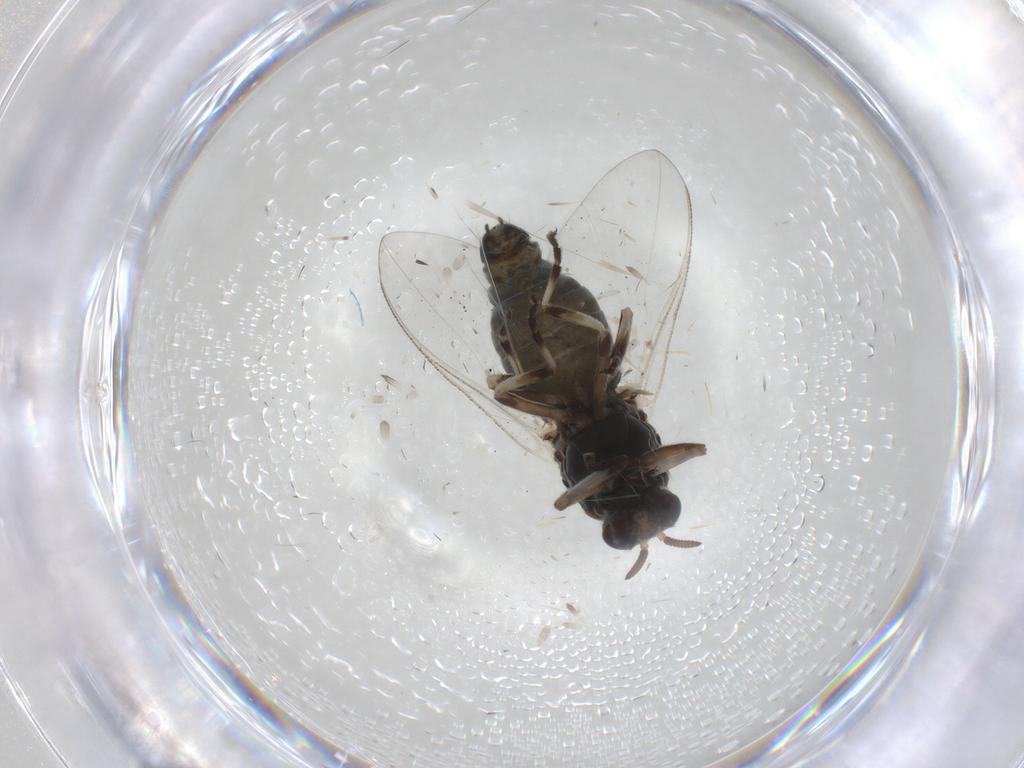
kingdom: Animalia
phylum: Arthropoda
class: Insecta
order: Diptera
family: Simuliidae
